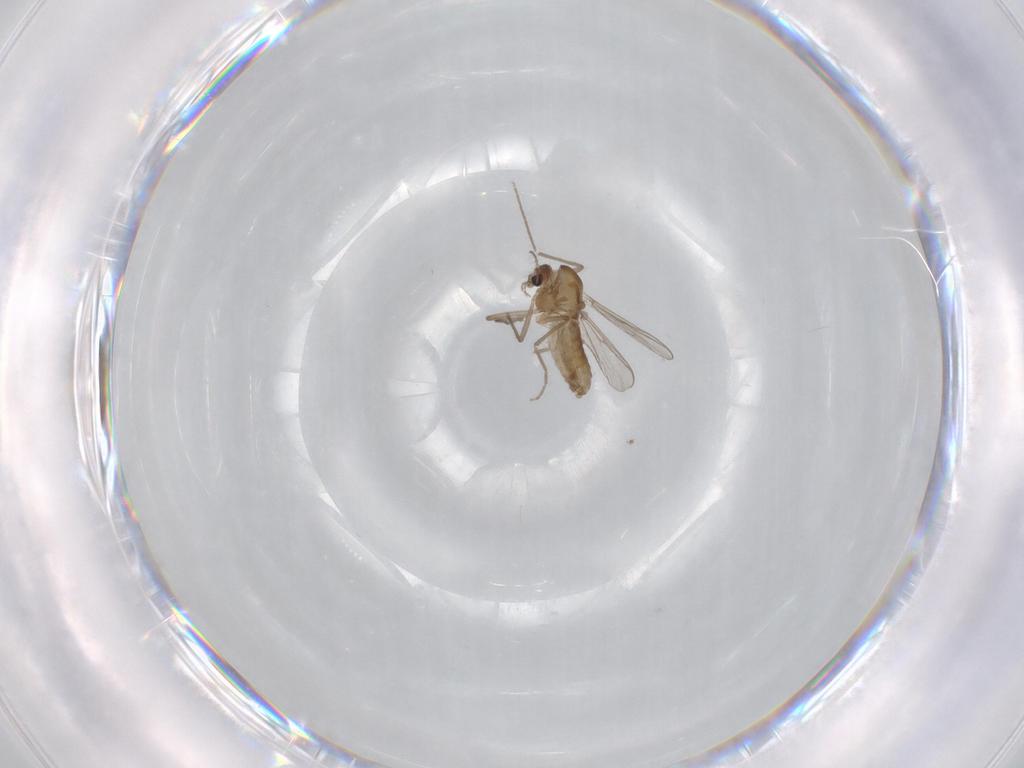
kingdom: Animalia
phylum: Arthropoda
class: Insecta
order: Diptera
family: Chironomidae
